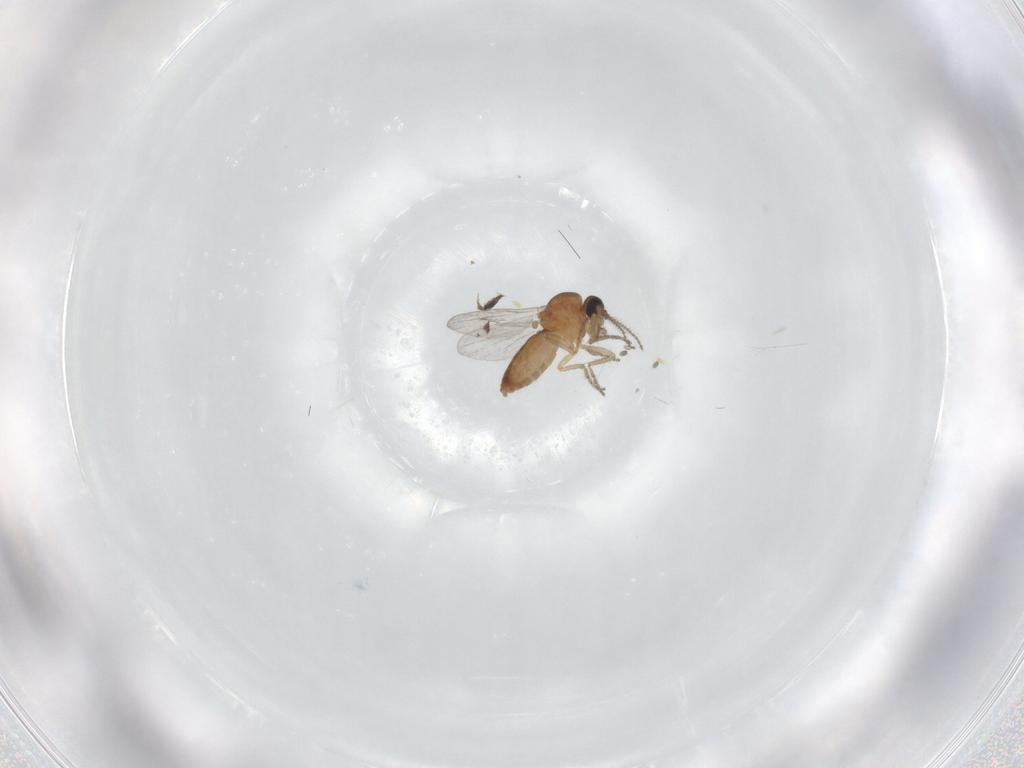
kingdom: Animalia
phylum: Arthropoda
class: Insecta
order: Diptera
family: Ceratopogonidae
